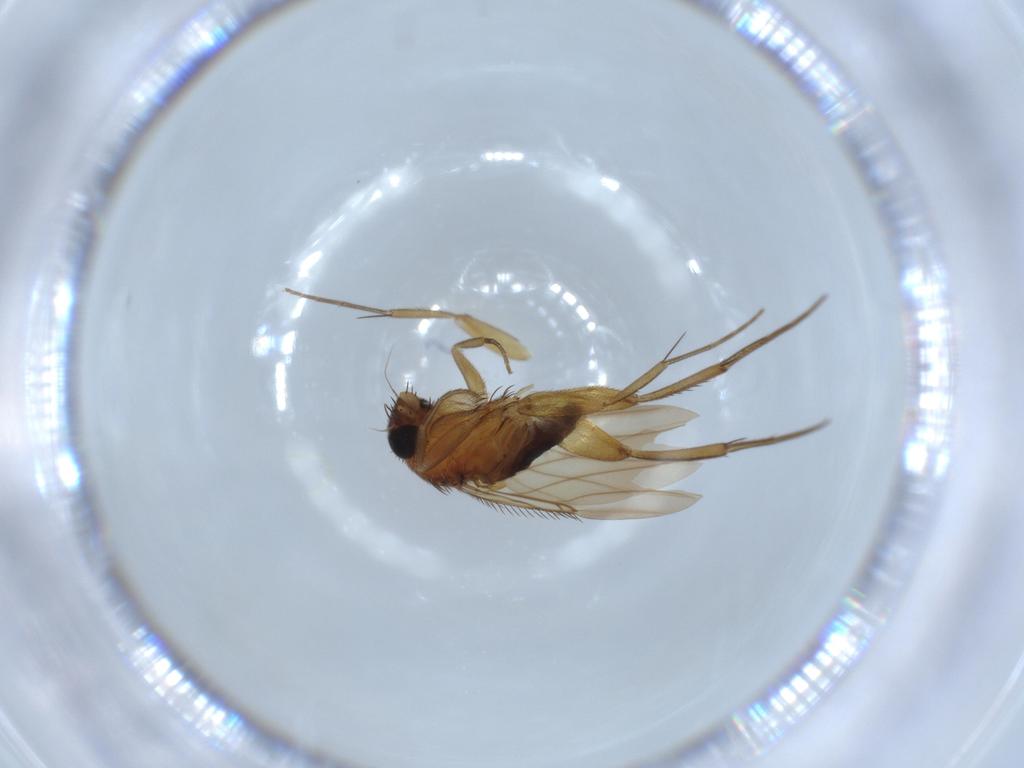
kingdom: Animalia
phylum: Arthropoda
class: Insecta
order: Diptera
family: Phoridae
